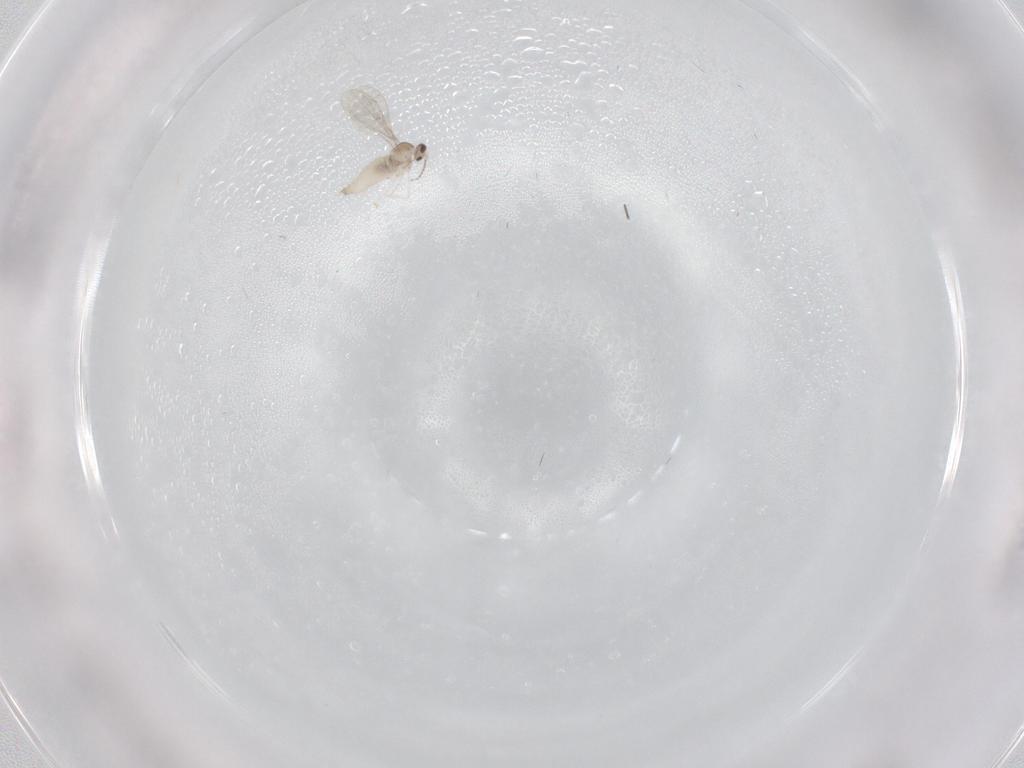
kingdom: Animalia
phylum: Arthropoda
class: Insecta
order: Diptera
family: Cecidomyiidae
